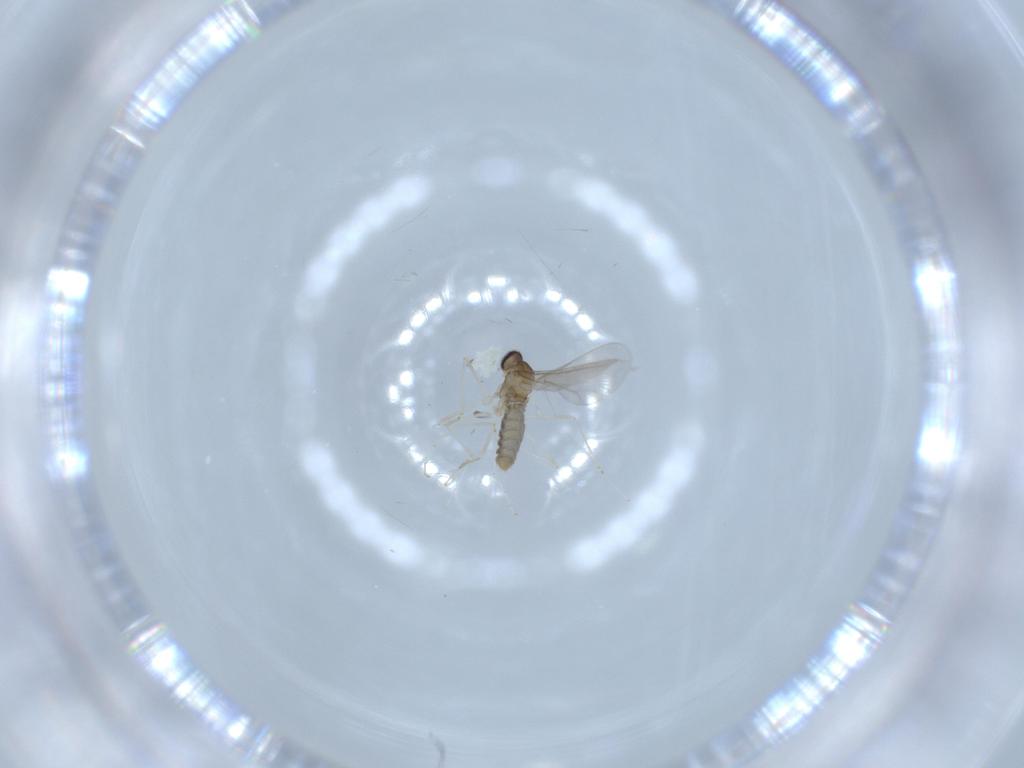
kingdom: Animalia
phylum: Arthropoda
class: Insecta
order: Diptera
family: Cecidomyiidae
